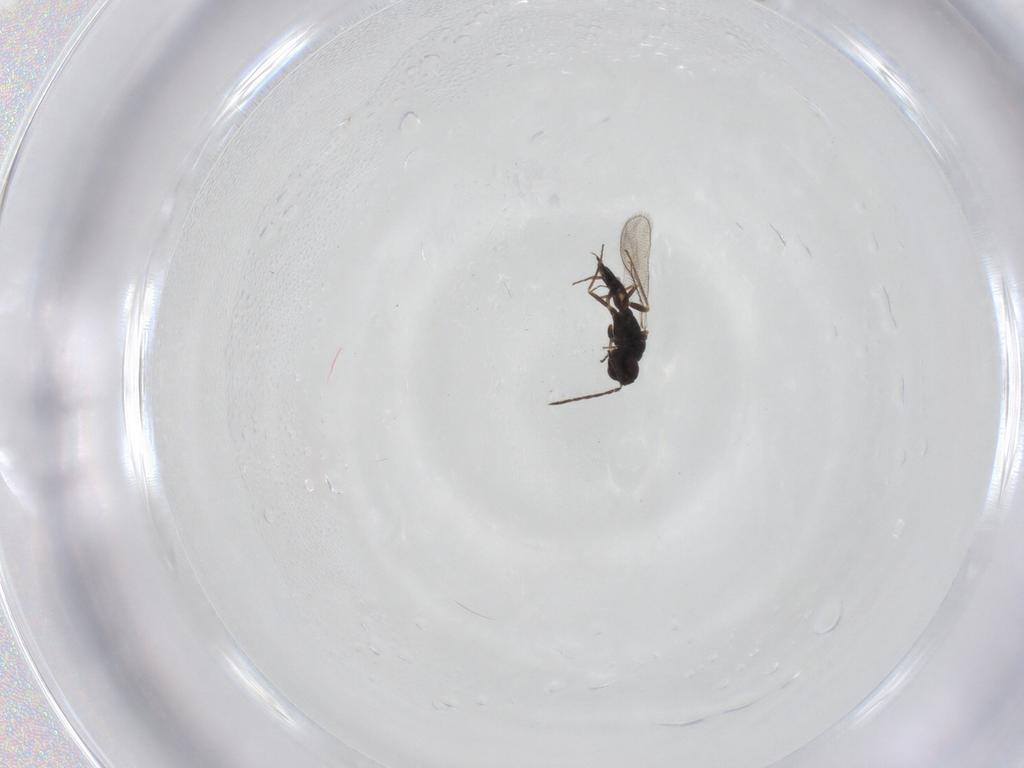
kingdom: Animalia
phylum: Arthropoda
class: Insecta
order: Hymenoptera
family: Eulophidae
